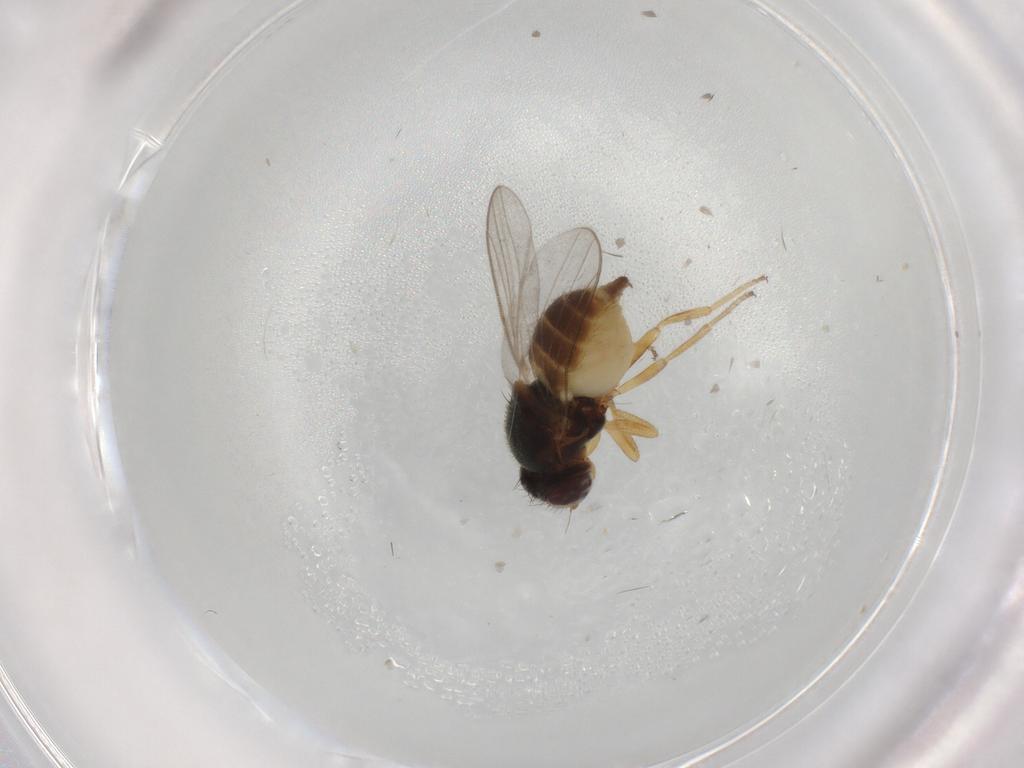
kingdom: Animalia
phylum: Arthropoda
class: Insecta
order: Diptera
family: Chloropidae
